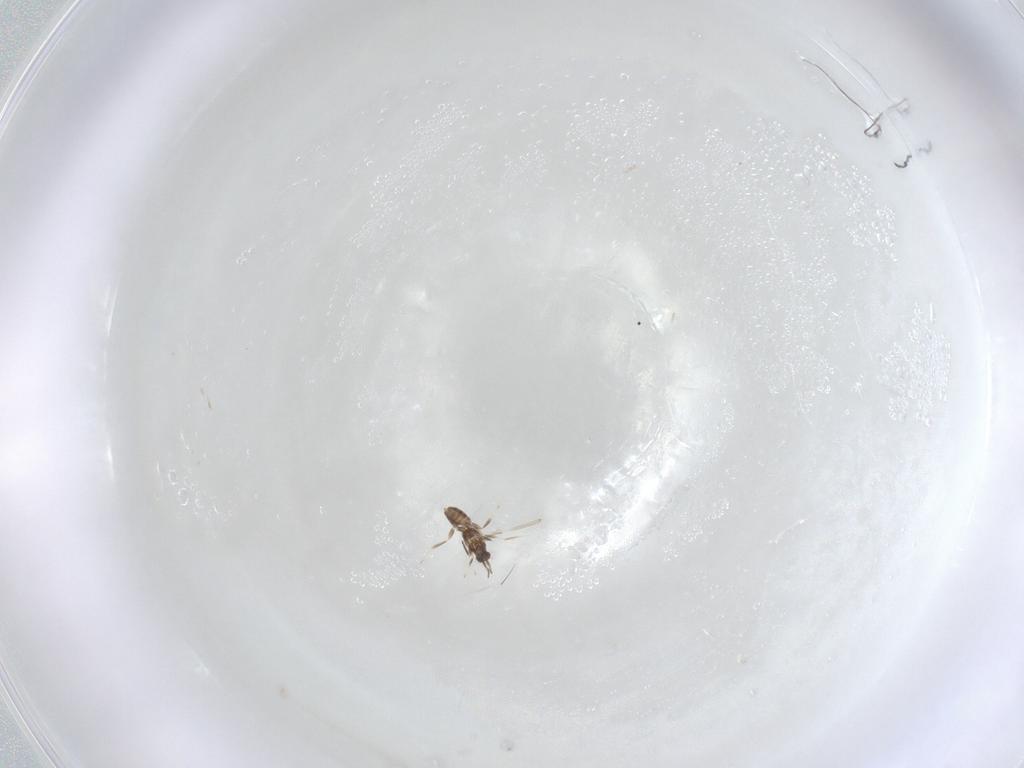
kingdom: Animalia
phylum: Arthropoda
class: Insecta
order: Hymenoptera
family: Mymaridae
